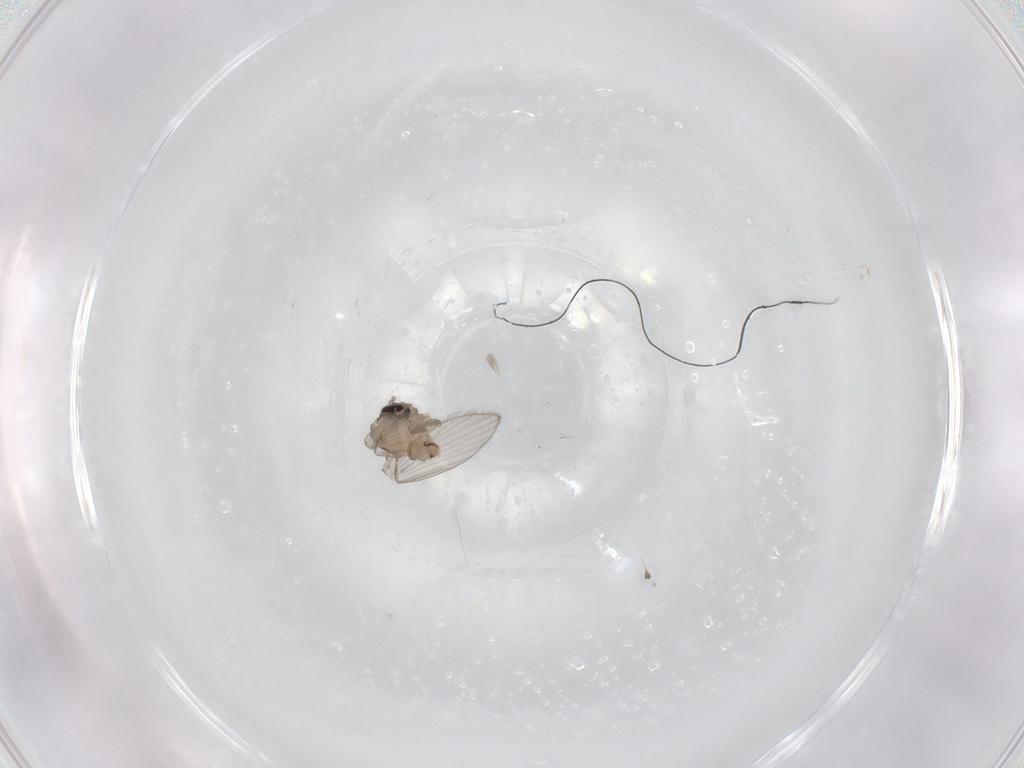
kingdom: Animalia
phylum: Arthropoda
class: Insecta
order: Diptera
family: Psychodidae
